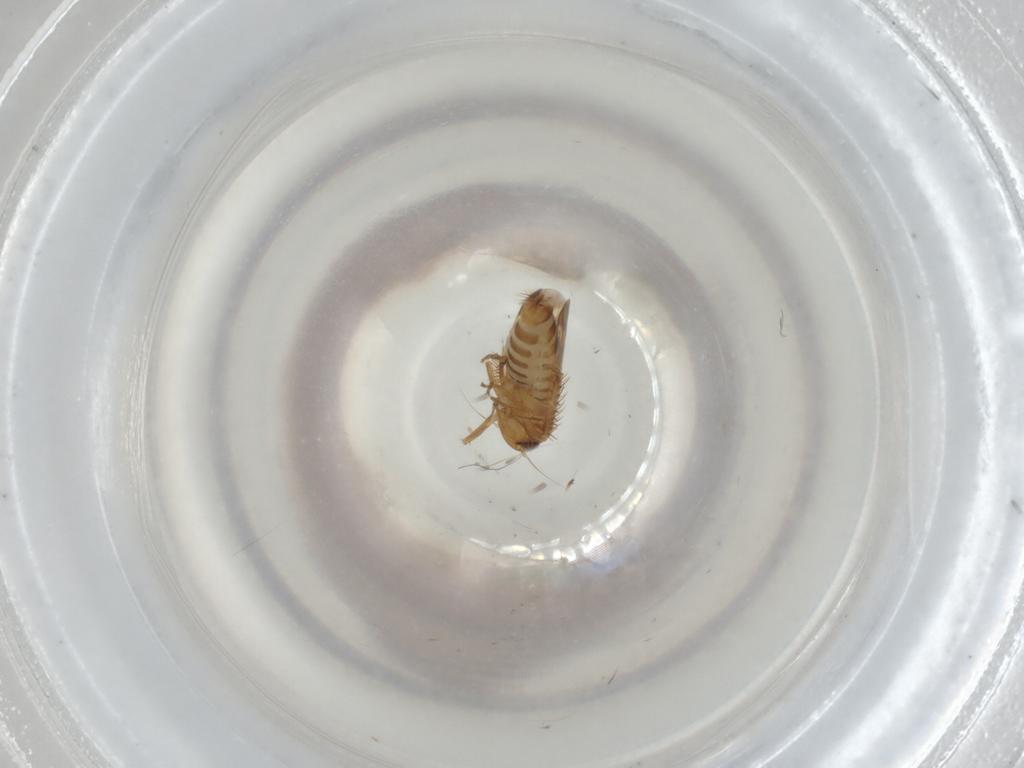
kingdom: Animalia
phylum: Arthropoda
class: Insecta
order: Hemiptera
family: Cicadellidae
